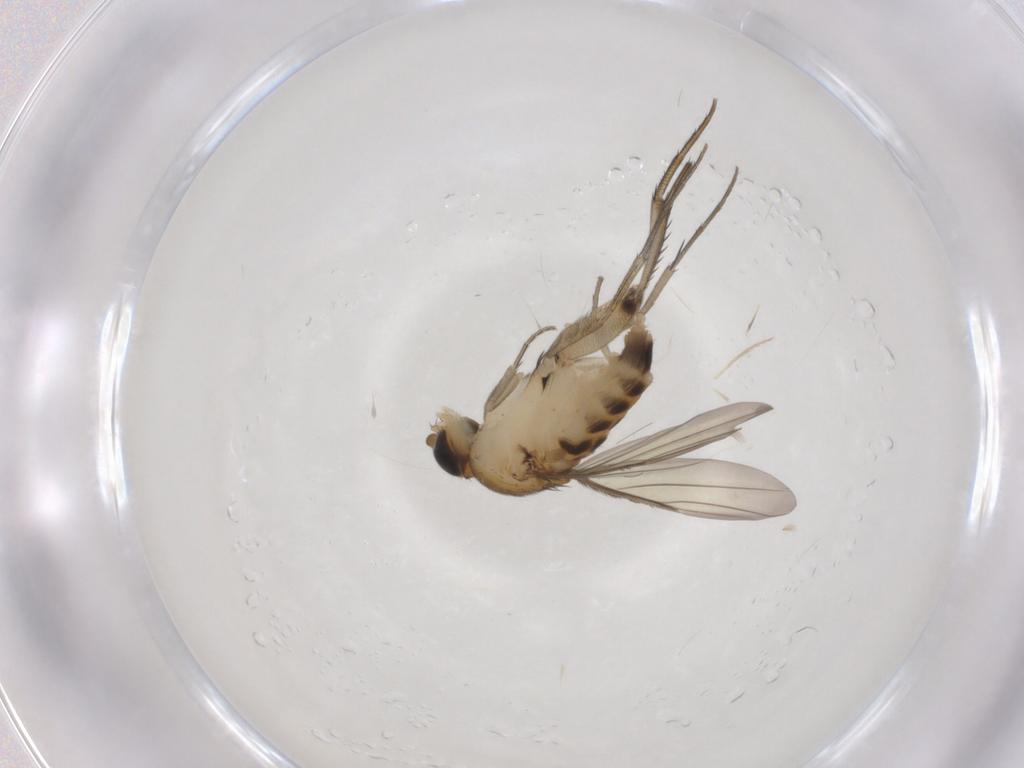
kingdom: Animalia
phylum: Arthropoda
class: Insecta
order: Diptera
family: Phoridae
